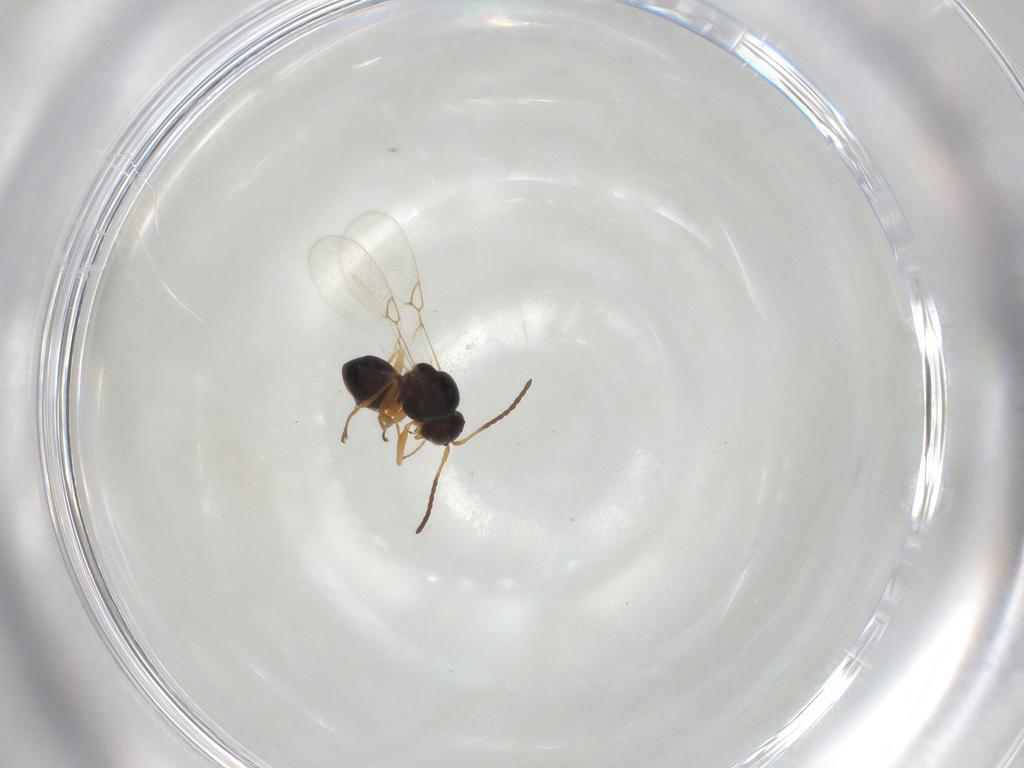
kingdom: Animalia
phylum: Arthropoda
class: Insecta
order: Hymenoptera
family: Figitidae
